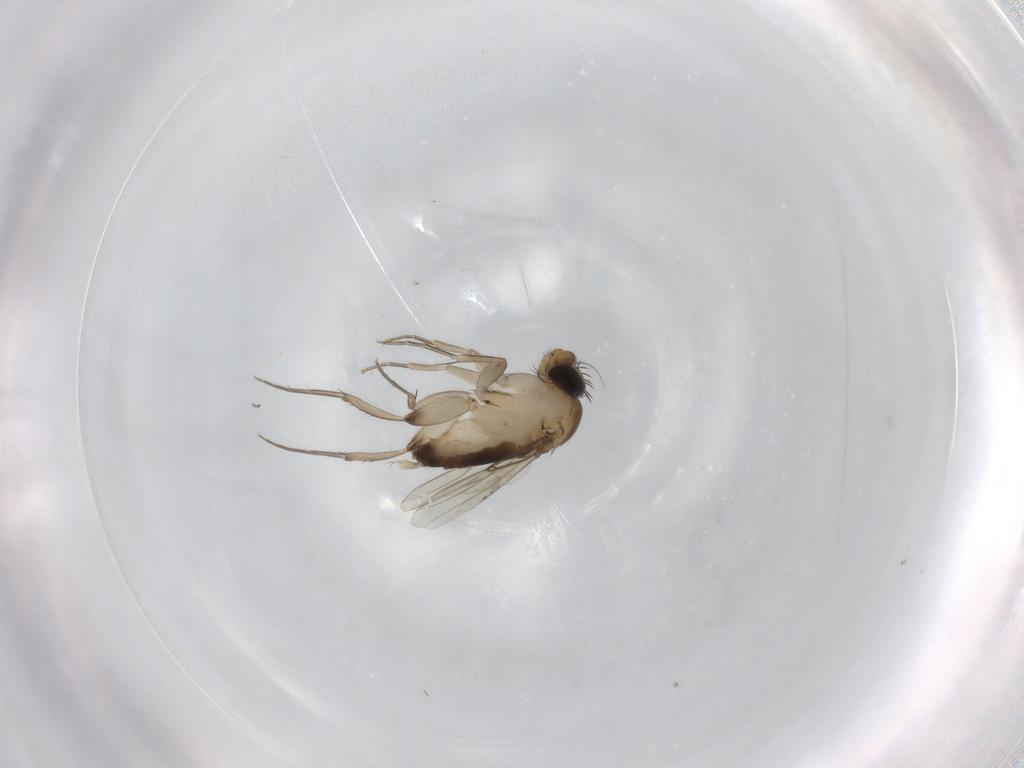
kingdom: Animalia
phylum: Arthropoda
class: Insecta
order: Diptera
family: Phoridae
